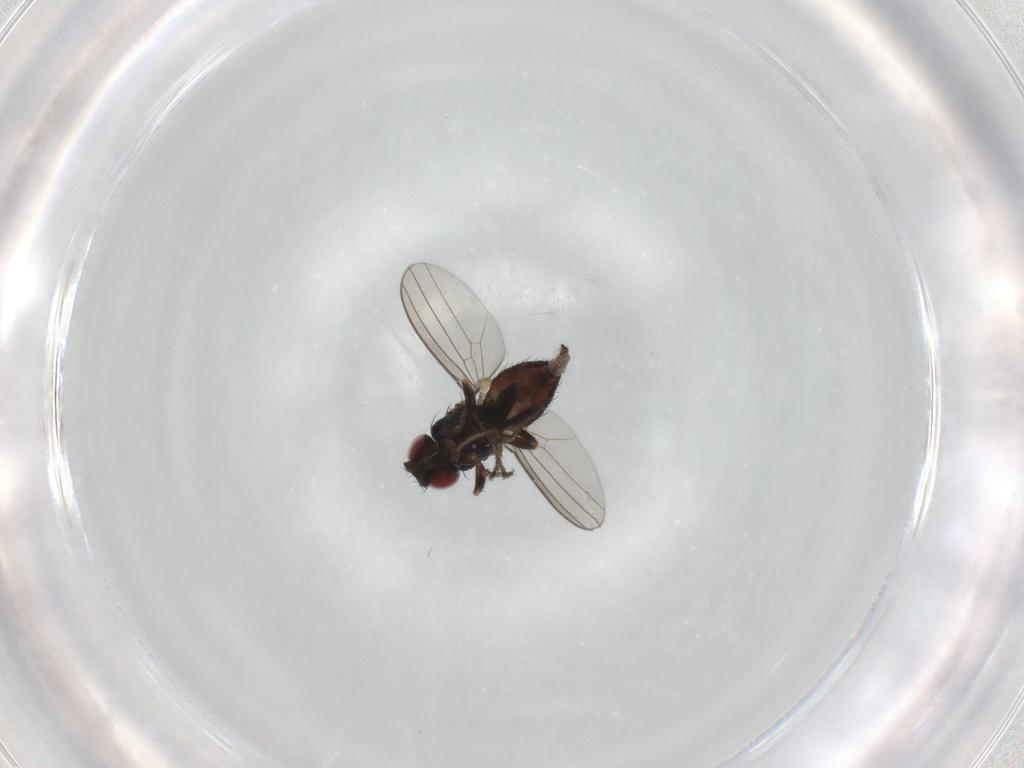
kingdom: Animalia
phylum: Arthropoda
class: Insecta
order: Diptera
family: Milichiidae
